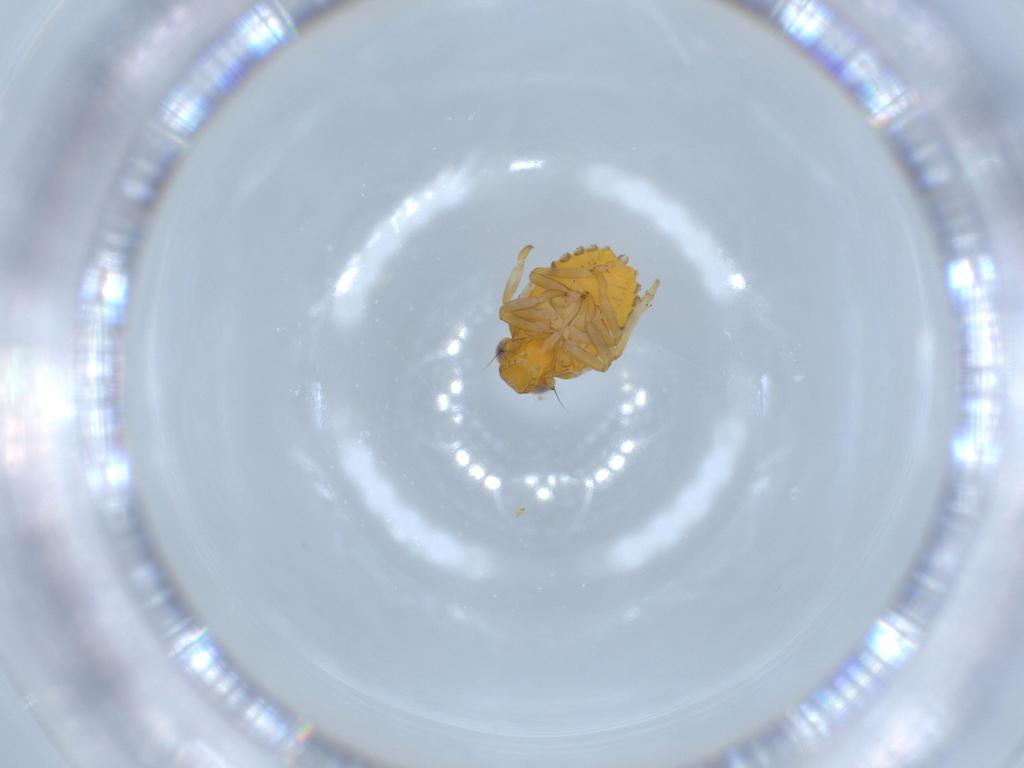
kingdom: Animalia
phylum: Arthropoda
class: Insecta
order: Hemiptera
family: Issidae
